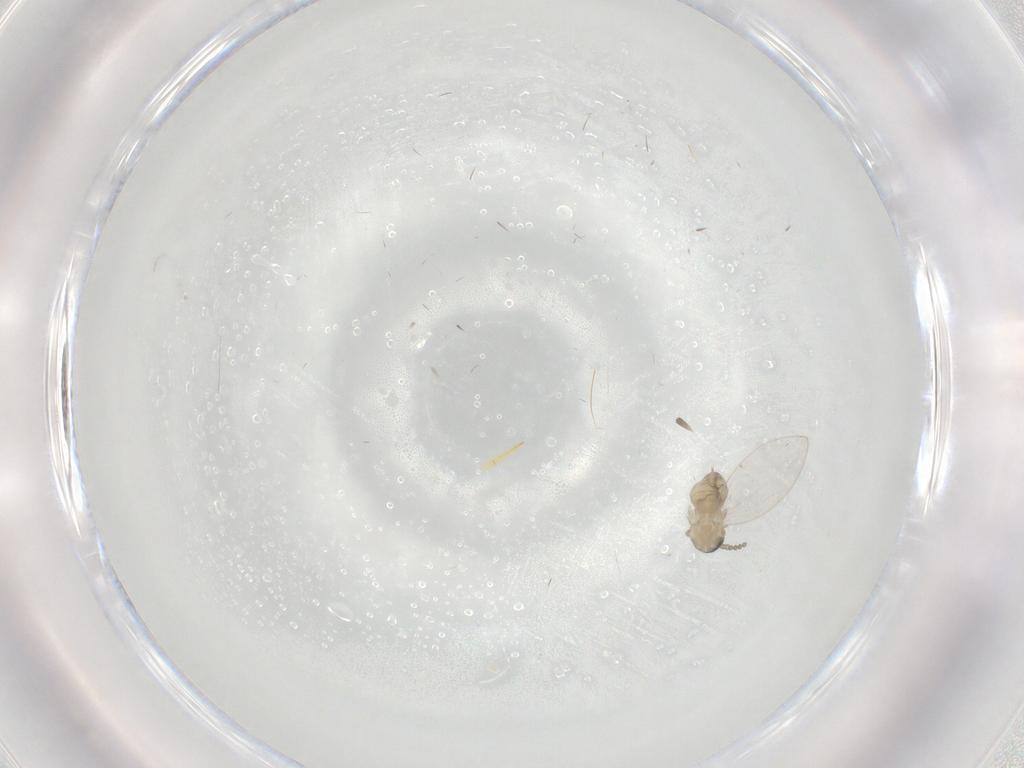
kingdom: Animalia
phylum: Arthropoda
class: Insecta
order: Diptera
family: Psychodidae
